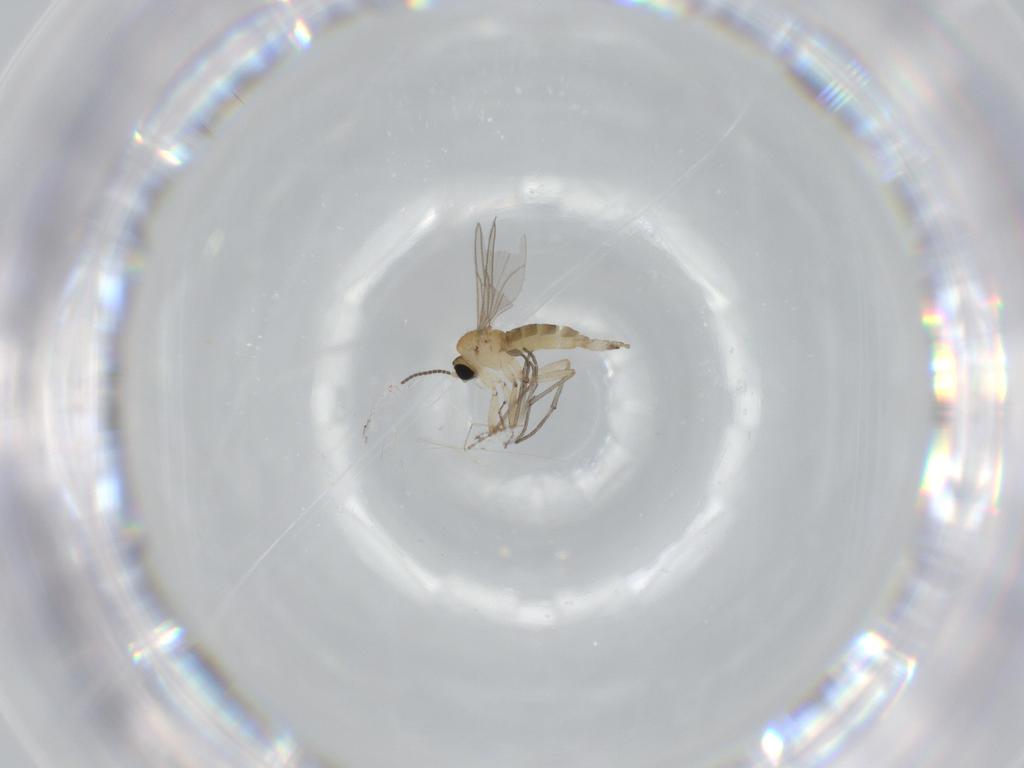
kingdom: Animalia
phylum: Arthropoda
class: Insecta
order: Diptera
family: Sciaridae
